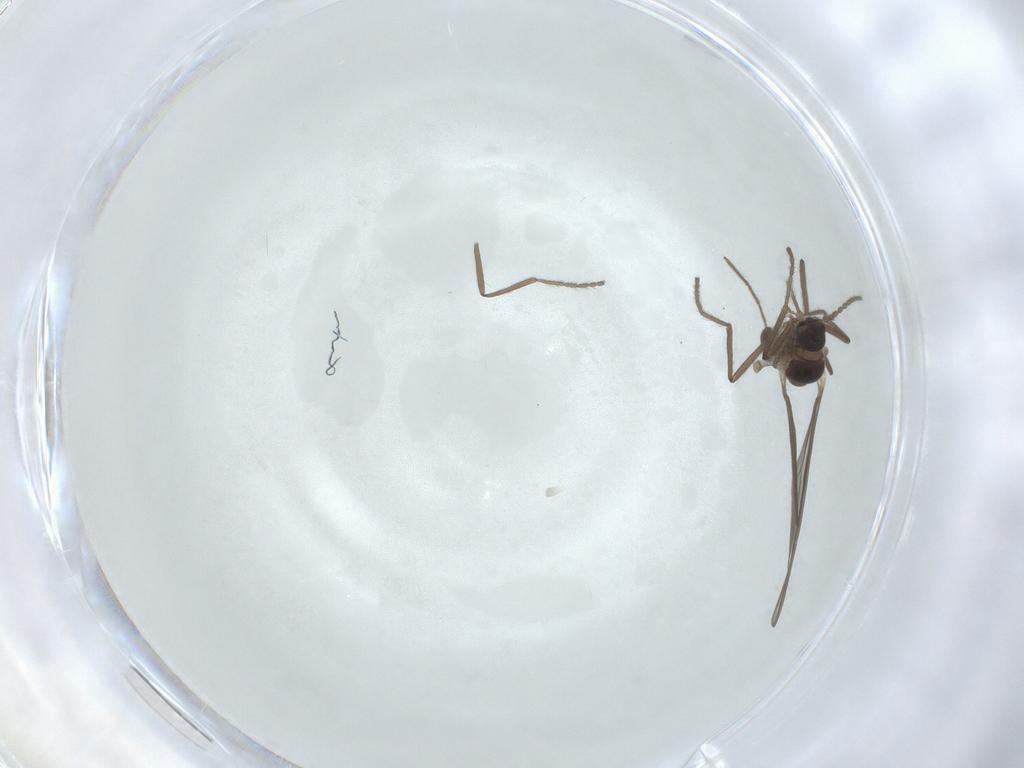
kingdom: Animalia
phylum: Arthropoda
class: Insecta
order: Diptera
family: Cecidomyiidae
